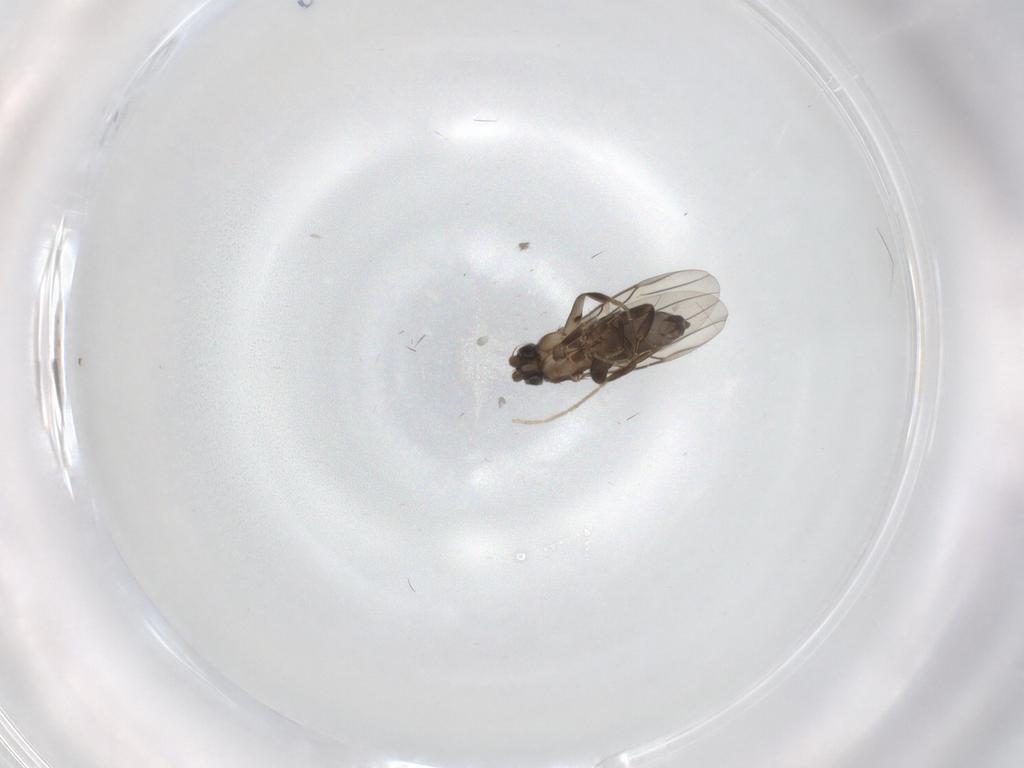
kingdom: Animalia
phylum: Arthropoda
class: Insecta
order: Diptera
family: Phoridae
